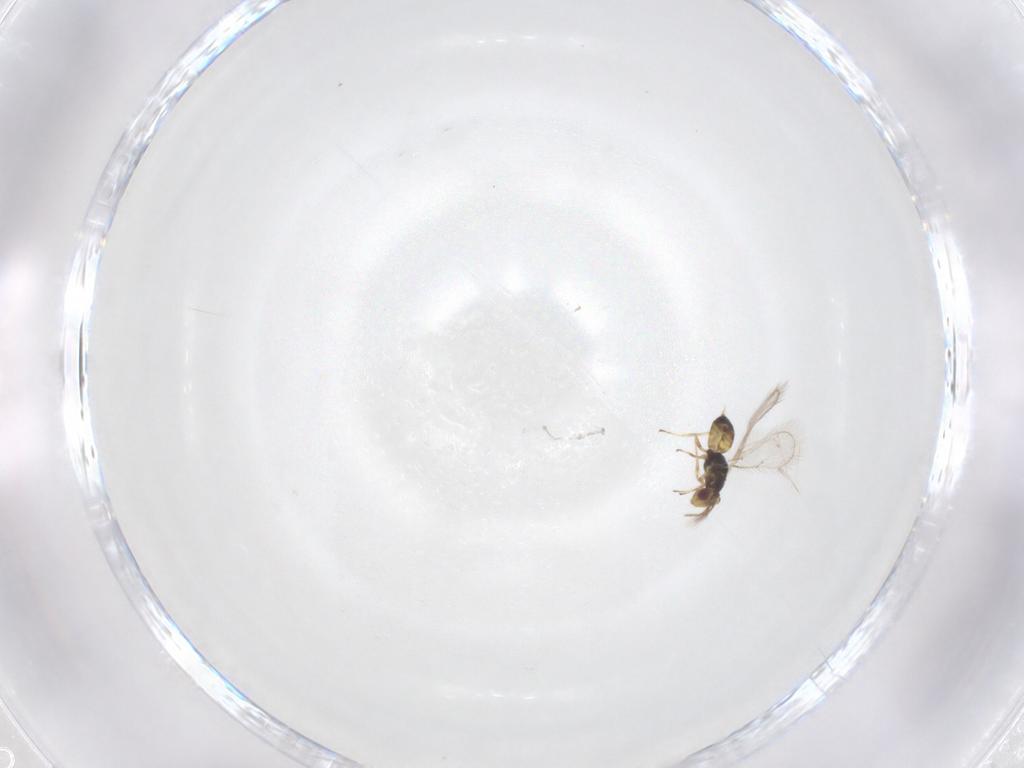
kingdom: Animalia
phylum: Arthropoda
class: Insecta
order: Hymenoptera
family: Eulophidae
